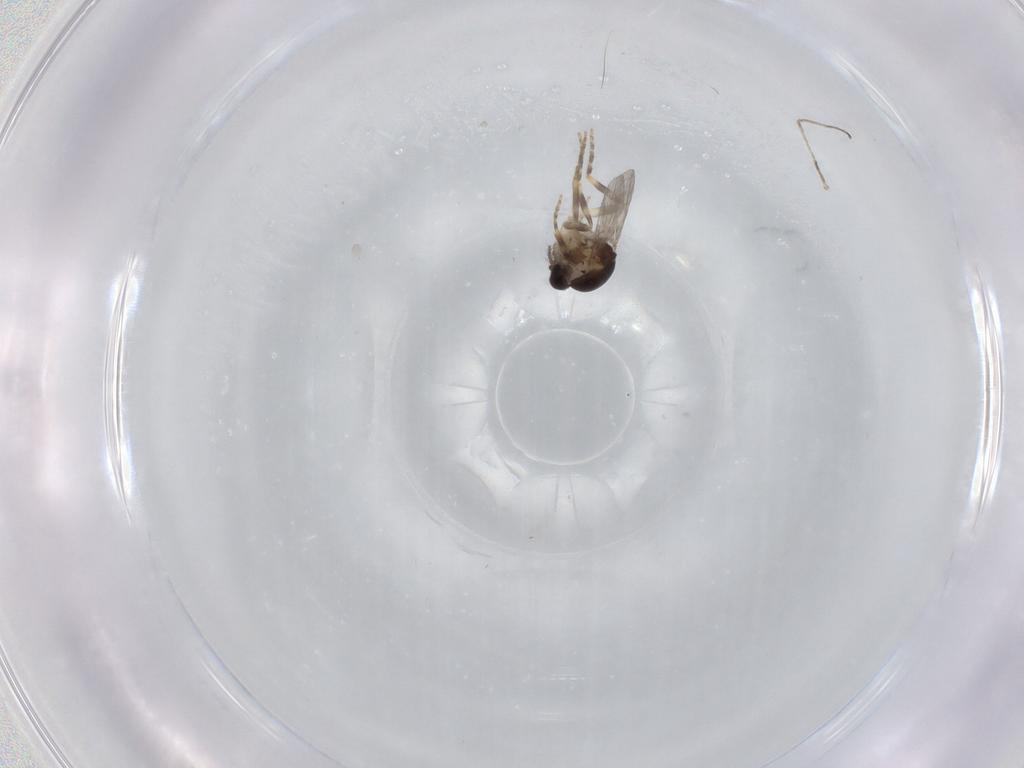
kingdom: Animalia
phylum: Arthropoda
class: Insecta
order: Diptera
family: Ceratopogonidae
